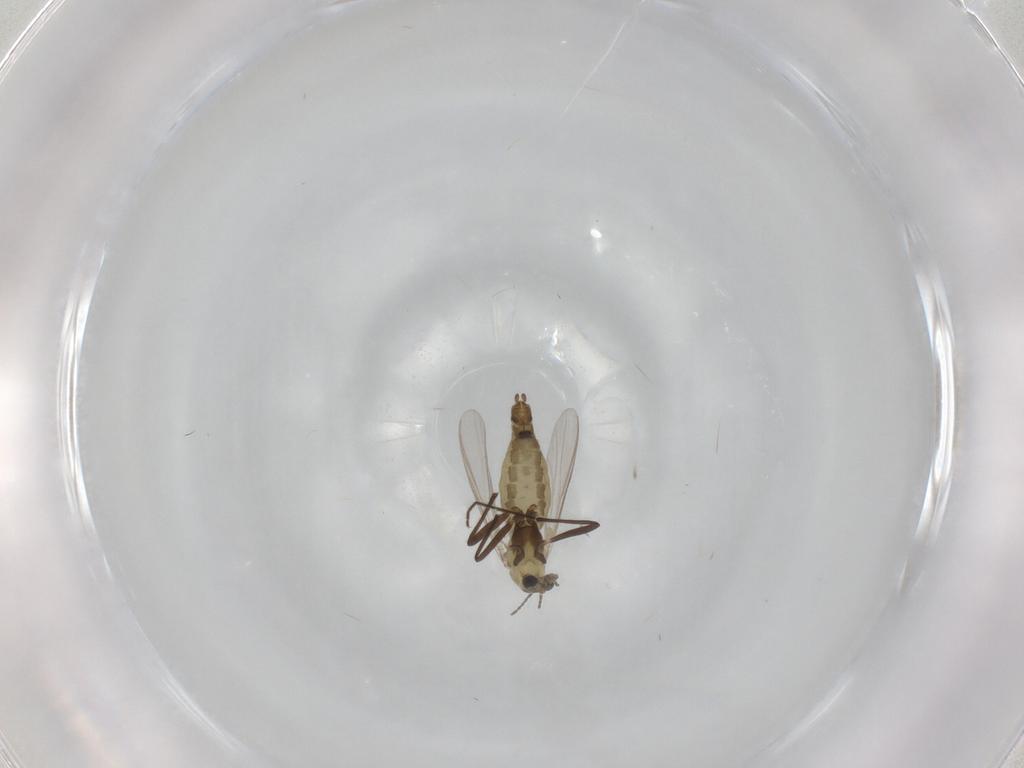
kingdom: Animalia
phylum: Arthropoda
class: Insecta
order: Diptera
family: Chironomidae
